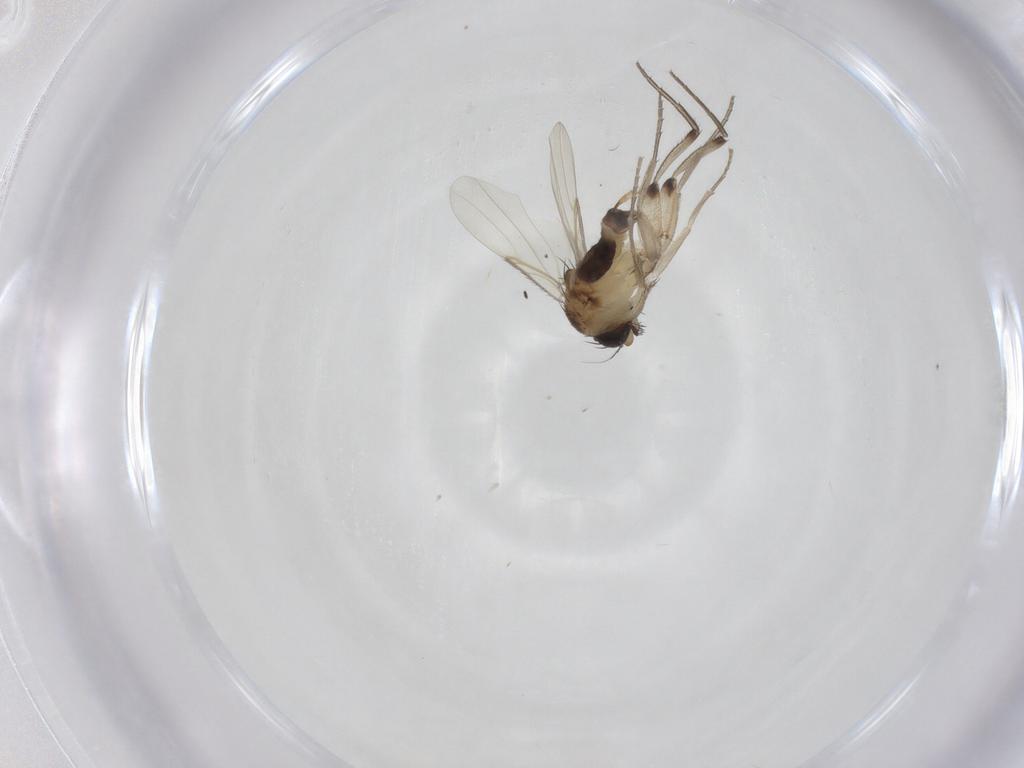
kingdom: Animalia
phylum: Arthropoda
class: Insecta
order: Diptera
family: Phoridae
